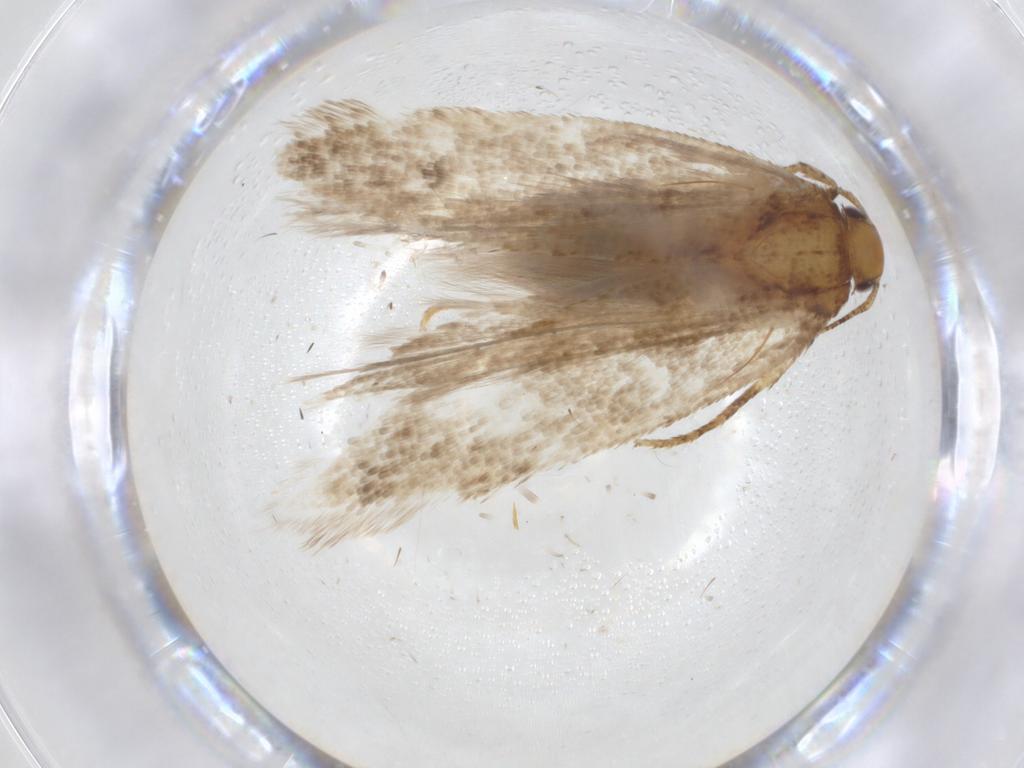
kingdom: Animalia
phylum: Arthropoda
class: Insecta
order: Lepidoptera
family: Gelechiidae
